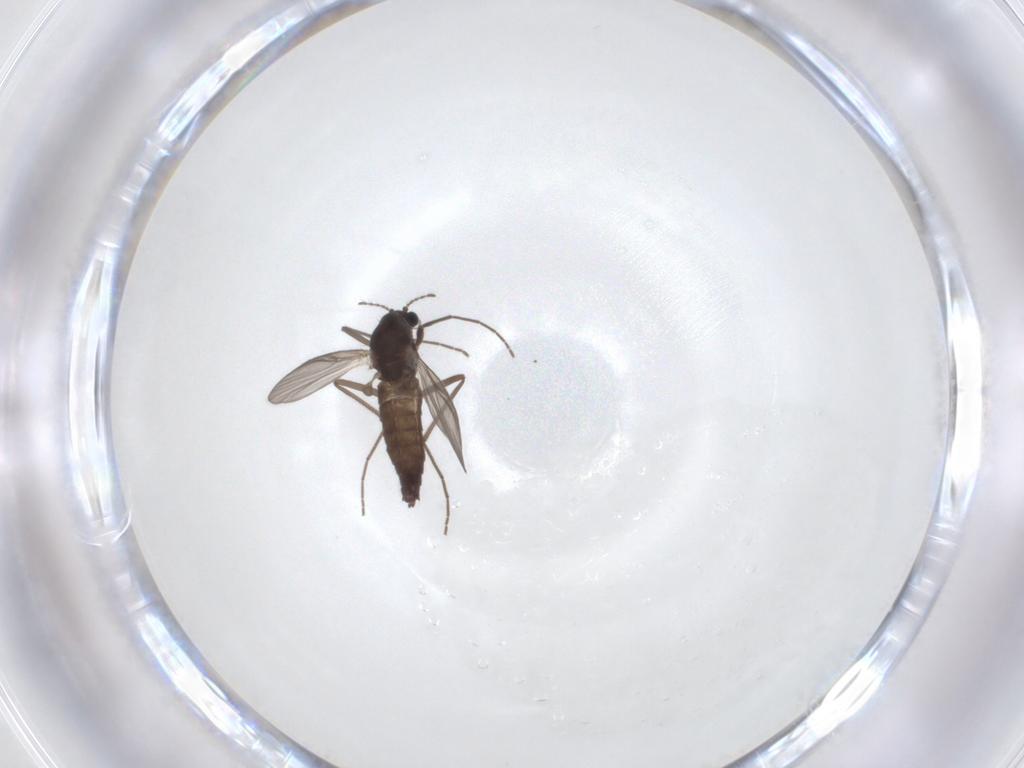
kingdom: Animalia
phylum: Arthropoda
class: Insecta
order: Diptera
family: Chironomidae
